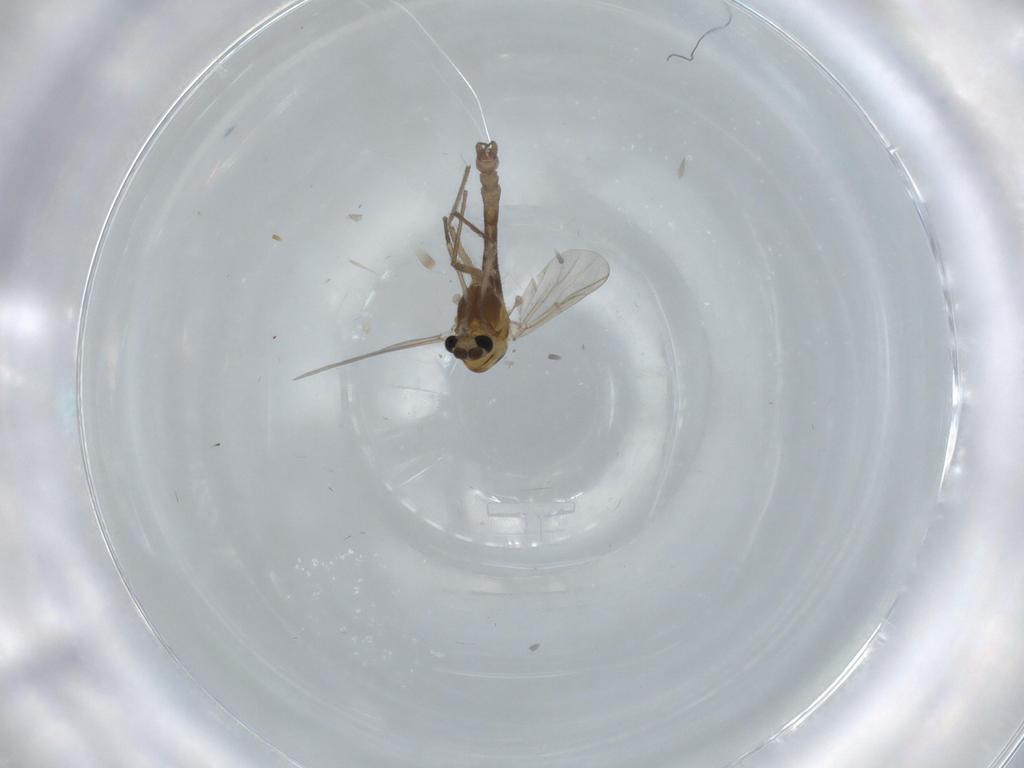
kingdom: Animalia
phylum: Arthropoda
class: Insecta
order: Diptera
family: Chironomidae
